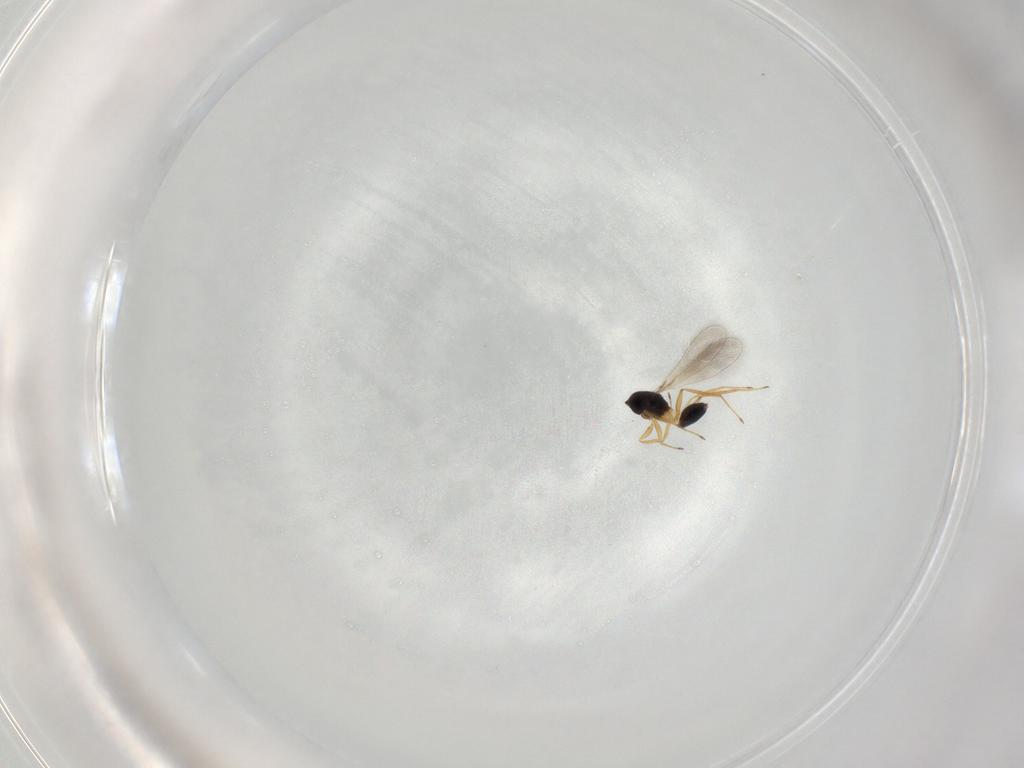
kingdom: Animalia
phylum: Arthropoda
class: Insecta
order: Hymenoptera
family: Mymaridae
